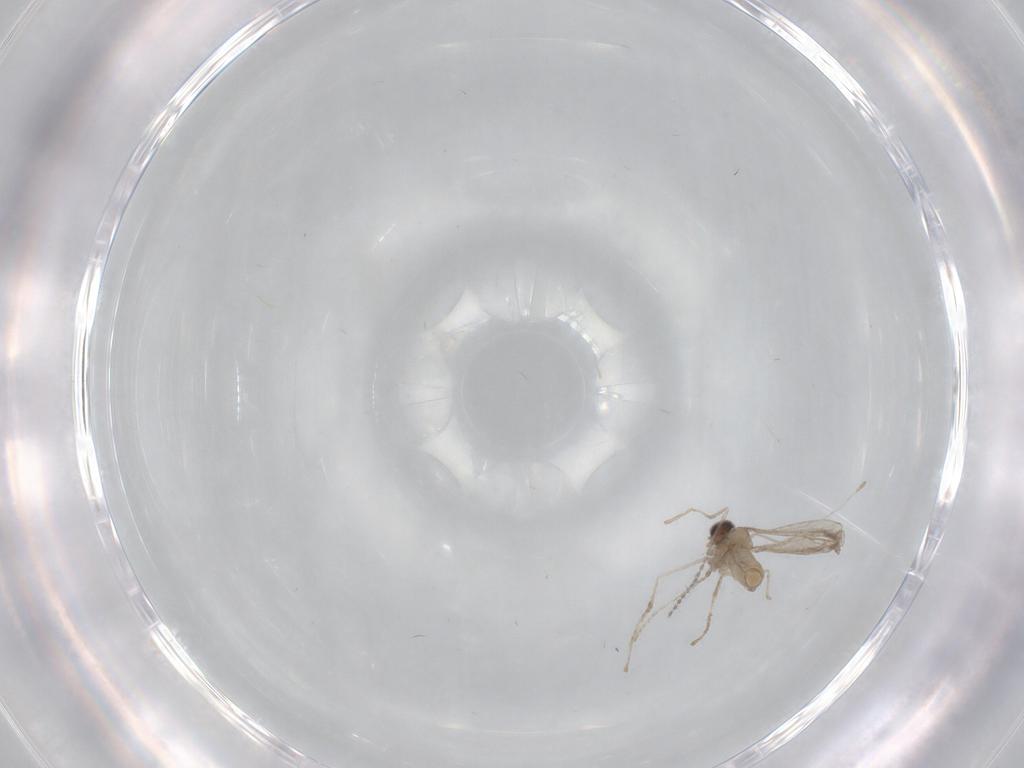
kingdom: Animalia
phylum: Arthropoda
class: Insecta
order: Diptera
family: Cecidomyiidae
